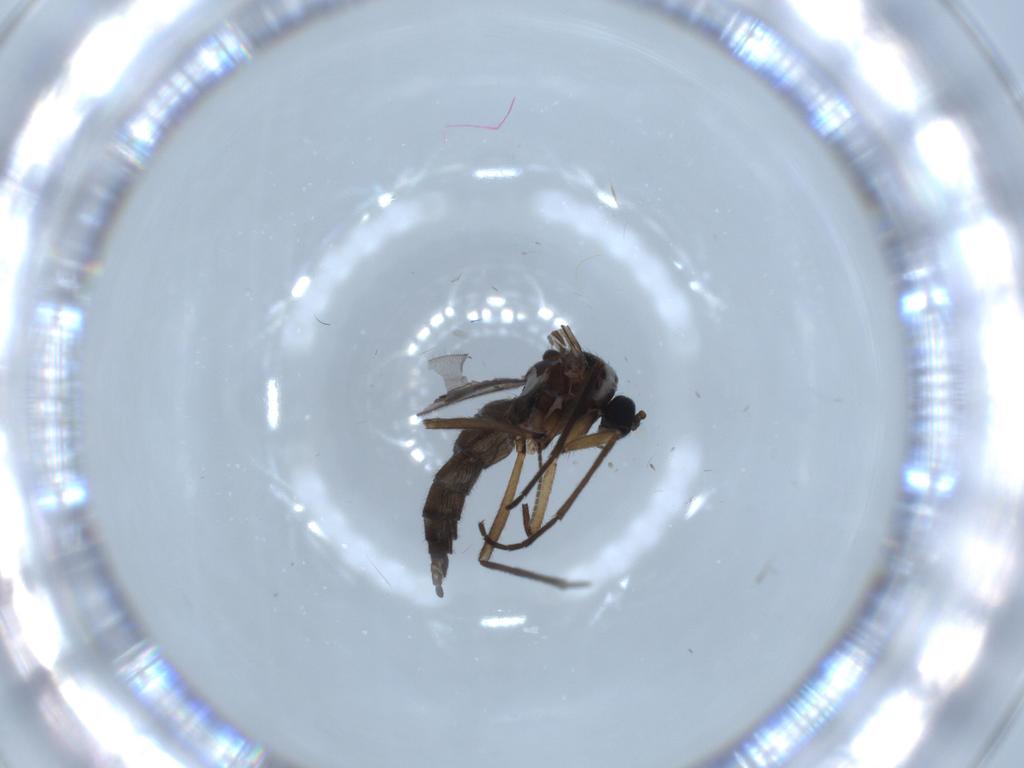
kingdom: Animalia
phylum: Arthropoda
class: Insecta
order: Diptera
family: Sciaridae
